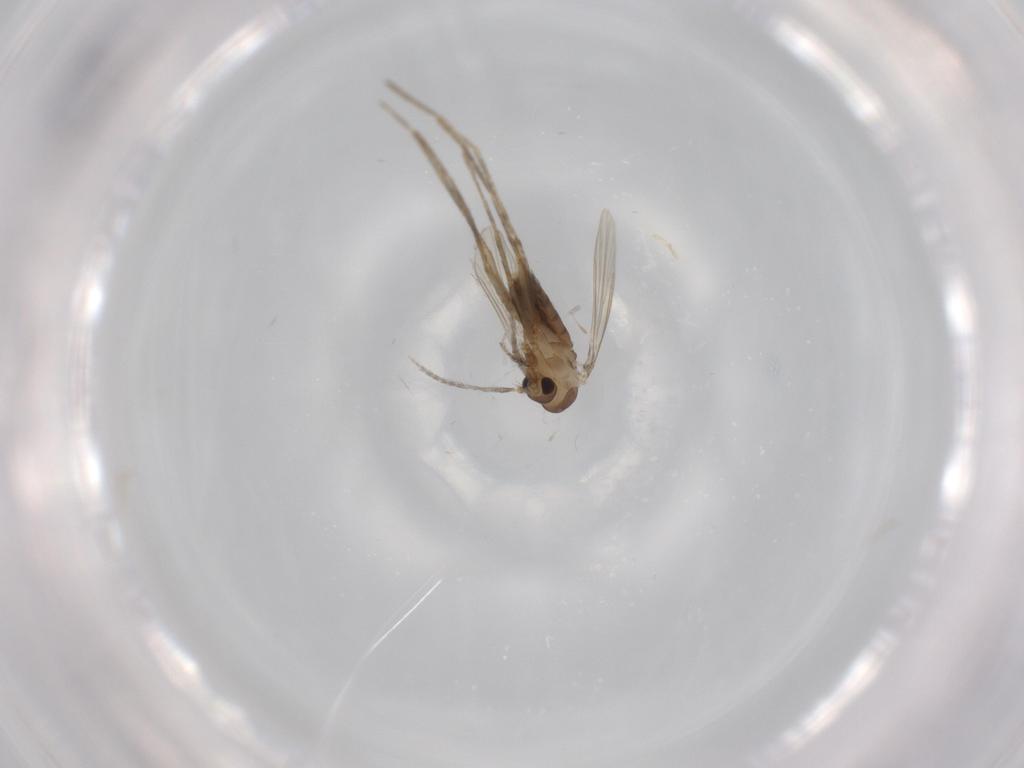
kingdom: Animalia
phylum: Arthropoda
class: Insecta
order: Diptera
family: Psychodidae
